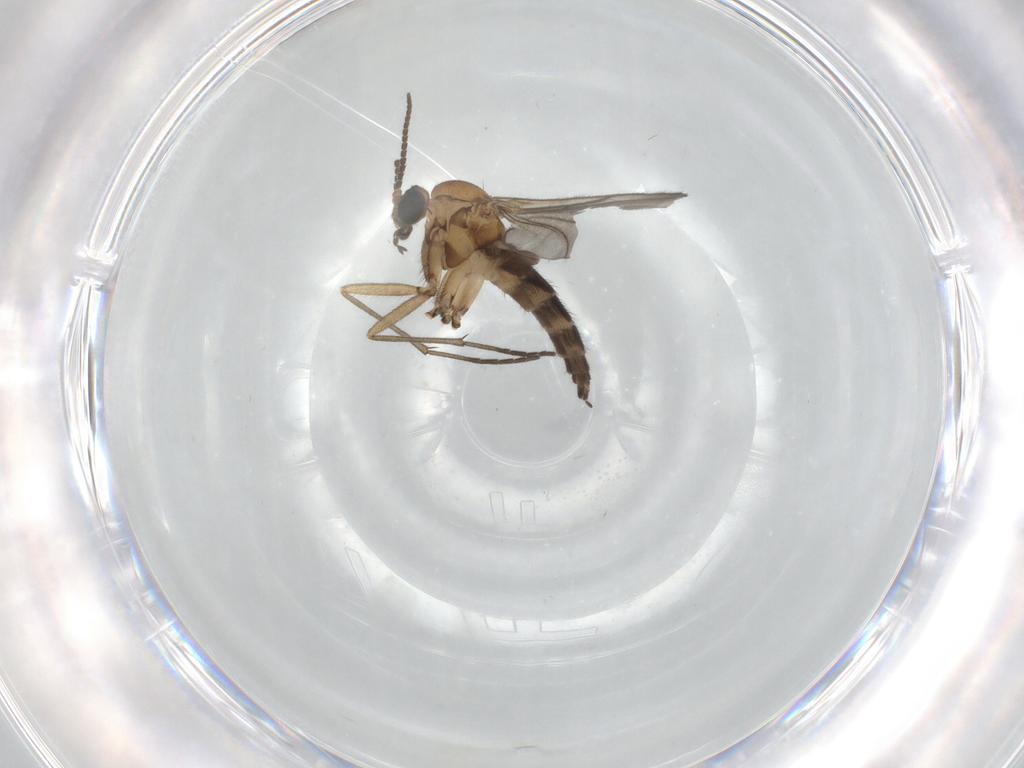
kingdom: Animalia
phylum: Arthropoda
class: Insecta
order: Diptera
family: Sciaridae
